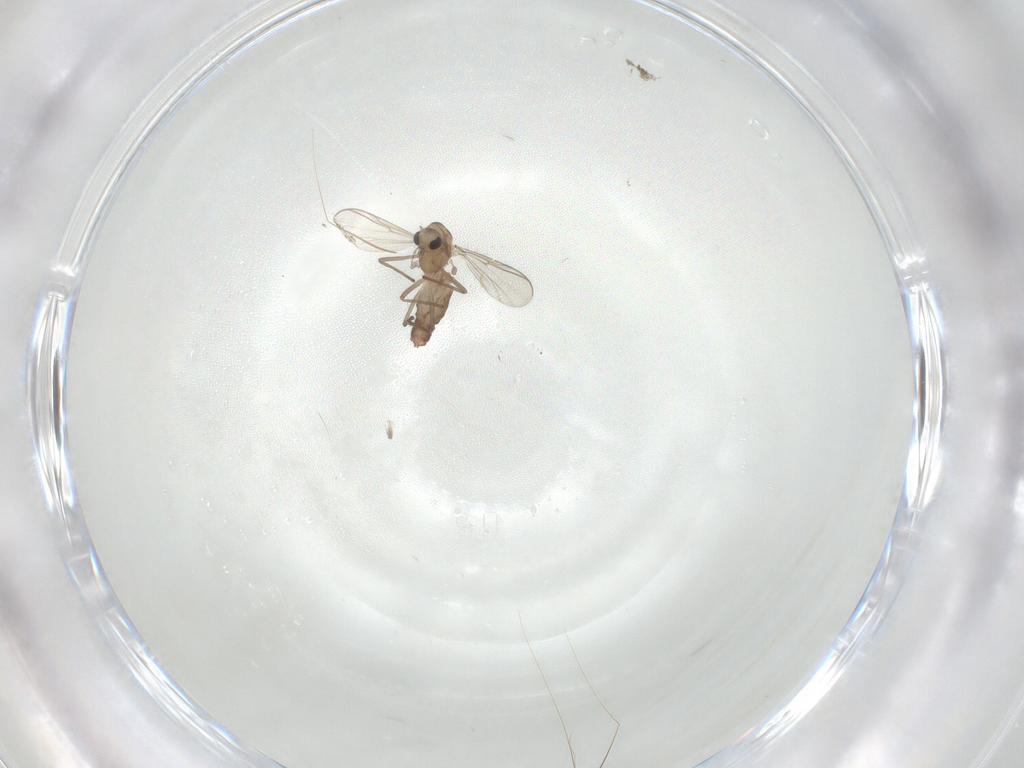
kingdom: Animalia
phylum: Arthropoda
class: Insecta
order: Diptera
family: Chironomidae
